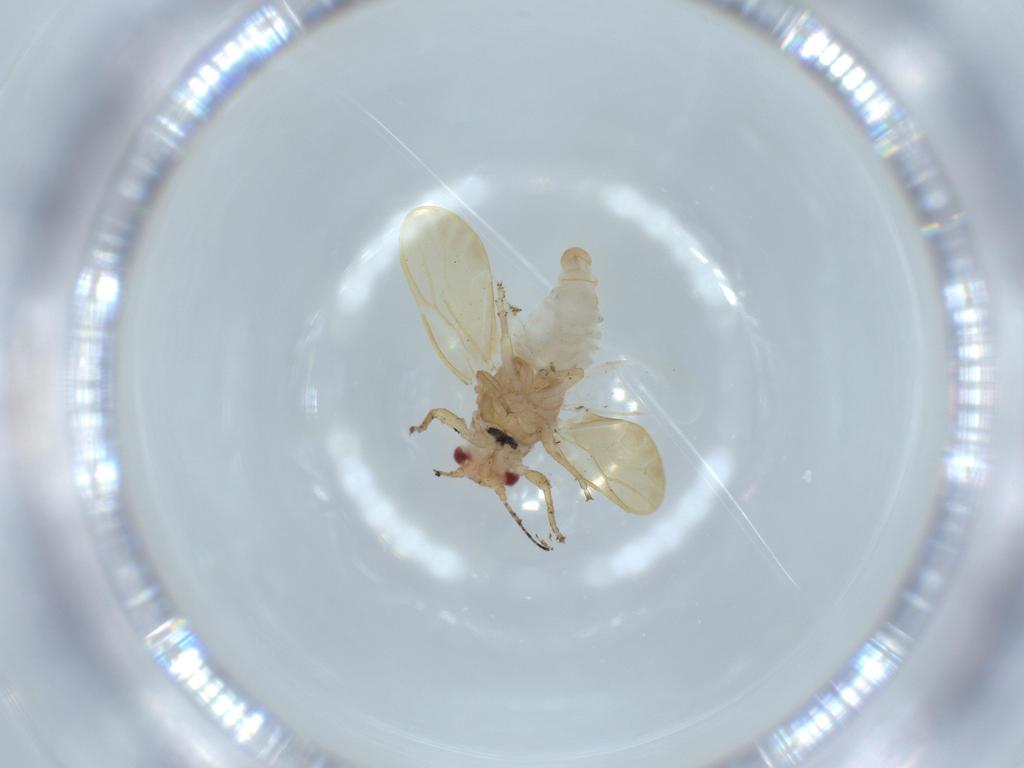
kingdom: Animalia
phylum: Arthropoda
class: Insecta
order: Hemiptera
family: Cicadellidae
